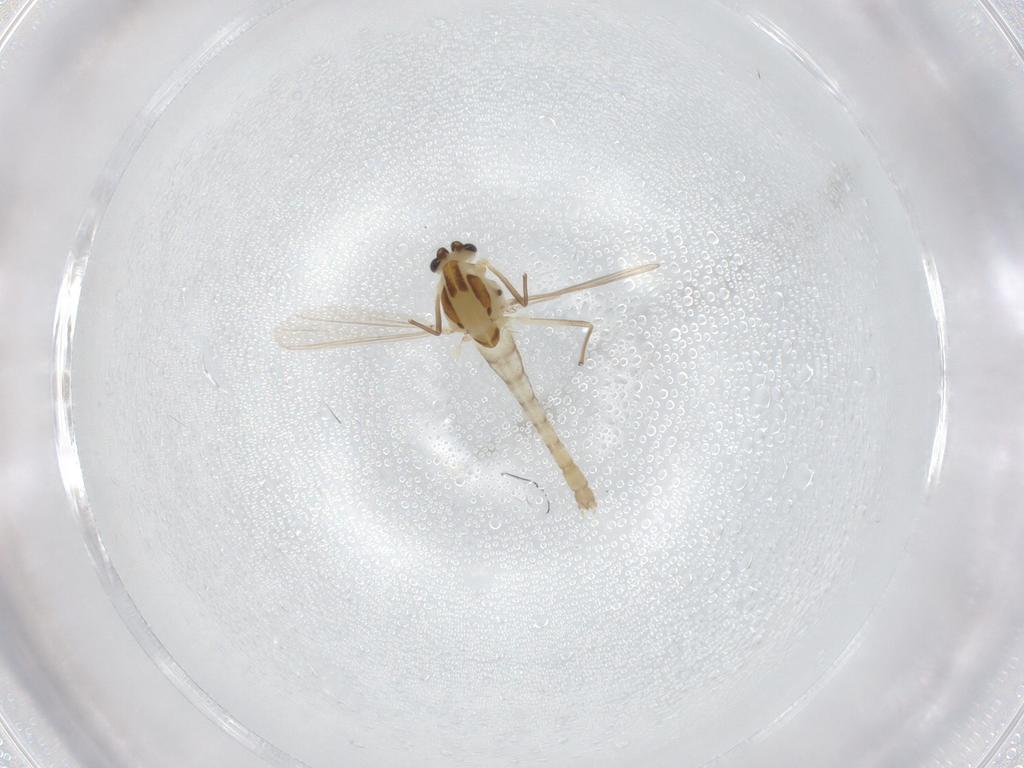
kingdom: Animalia
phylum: Arthropoda
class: Insecta
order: Diptera
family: Chironomidae
